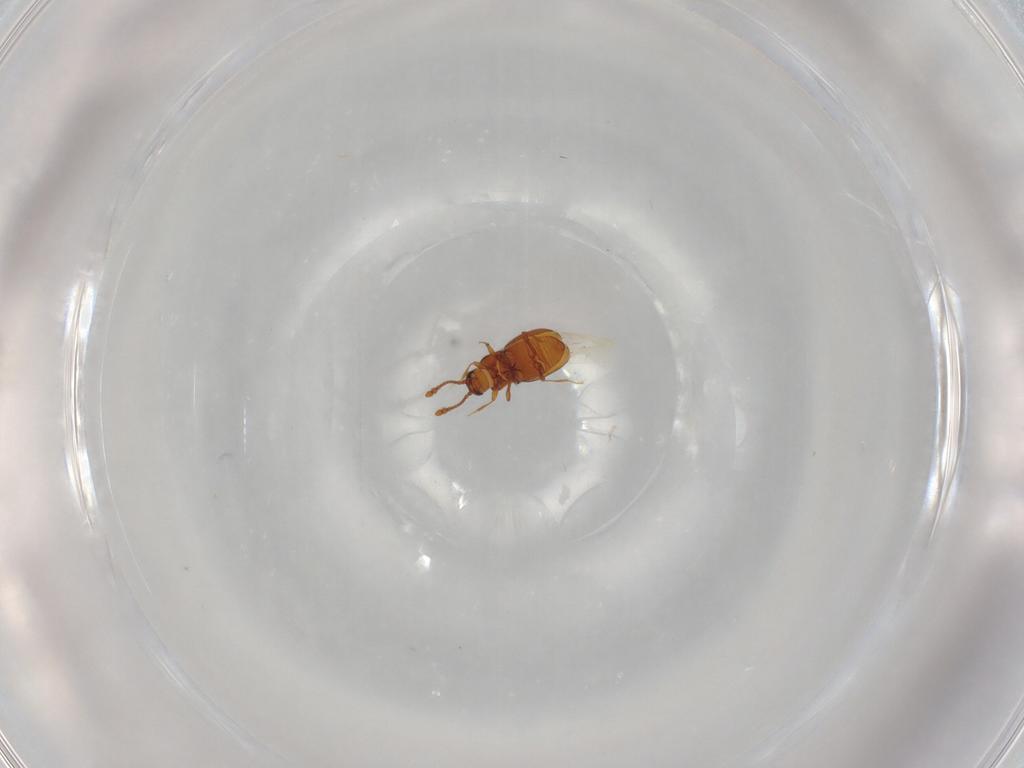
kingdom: Animalia
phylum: Arthropoda
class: Insecta
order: Coleoptera
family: Staphylinidae
